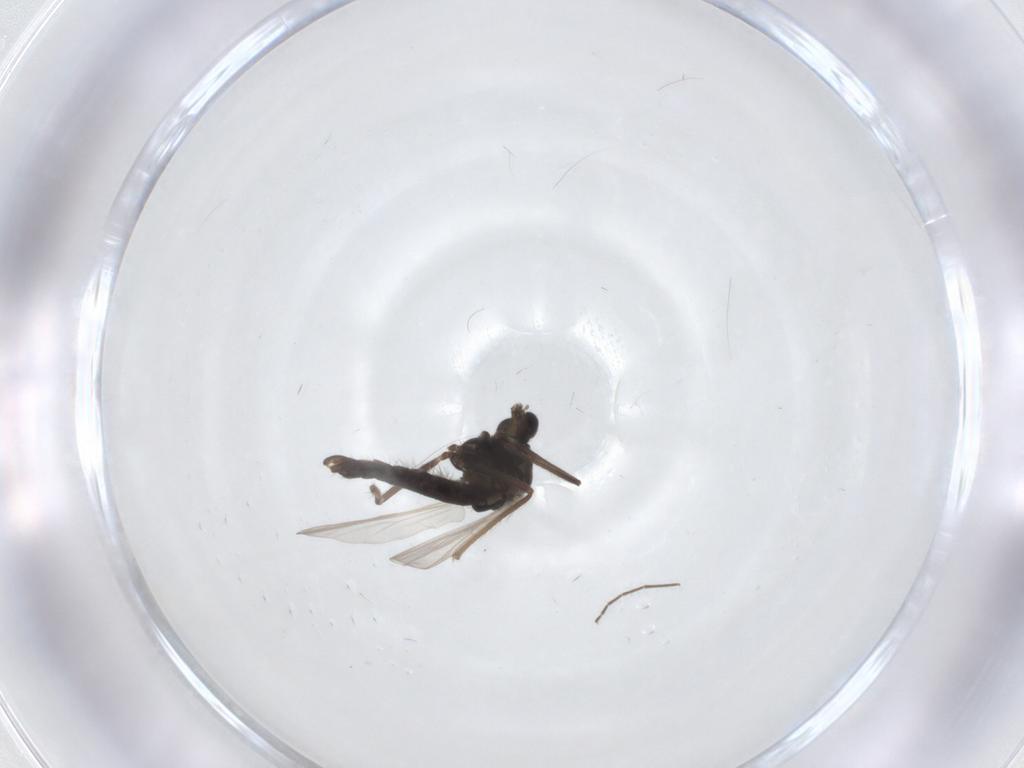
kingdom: Animalia
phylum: Arthropoda
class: Insecta
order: Diptera
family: Chironomidae
